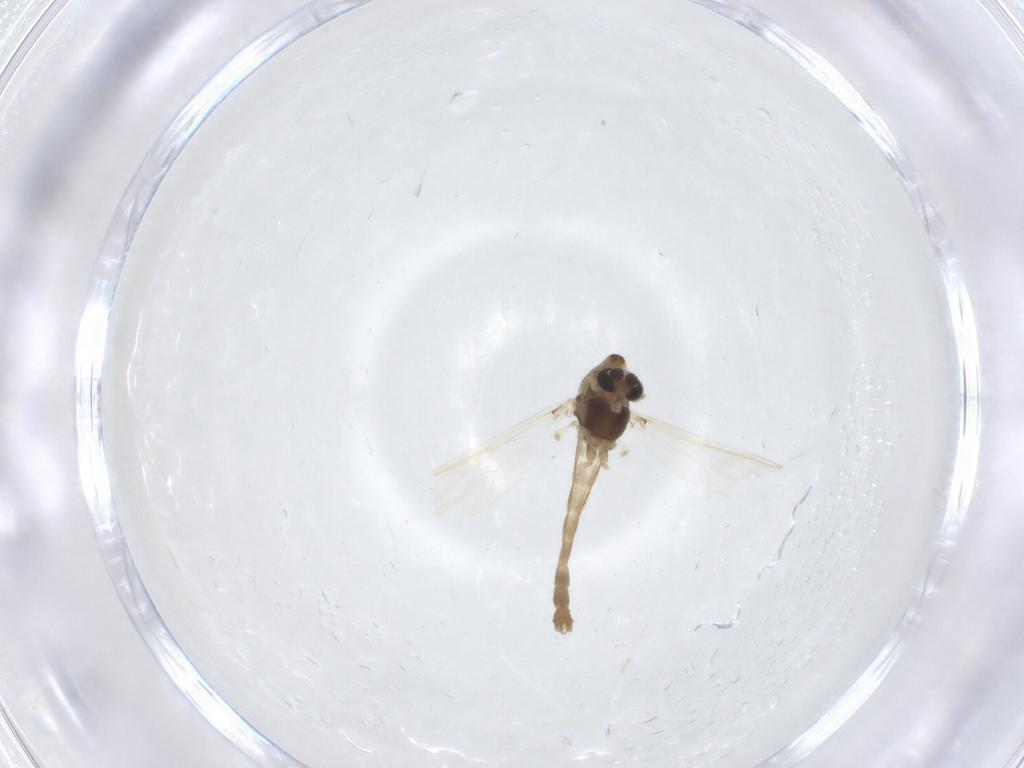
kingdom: Animalia
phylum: Arthropoda
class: Insecta
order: Diptera
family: Chironomidae
